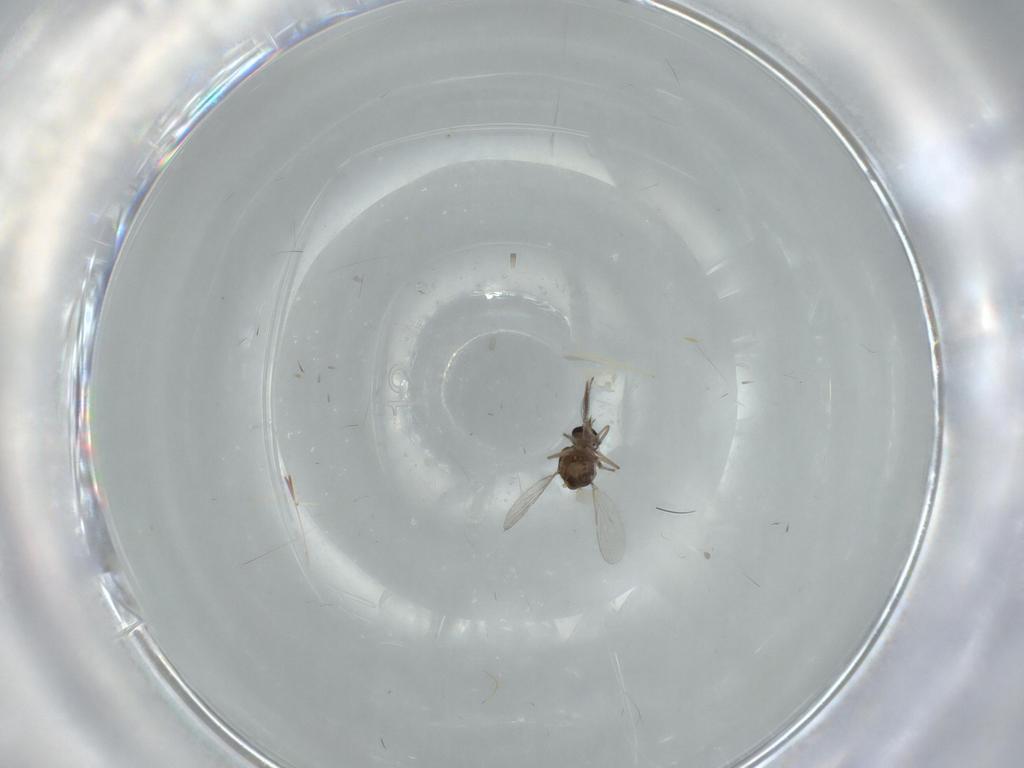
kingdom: Animalia
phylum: Arthropoda
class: Insecta
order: Diptera
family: Ceratopogonidae
